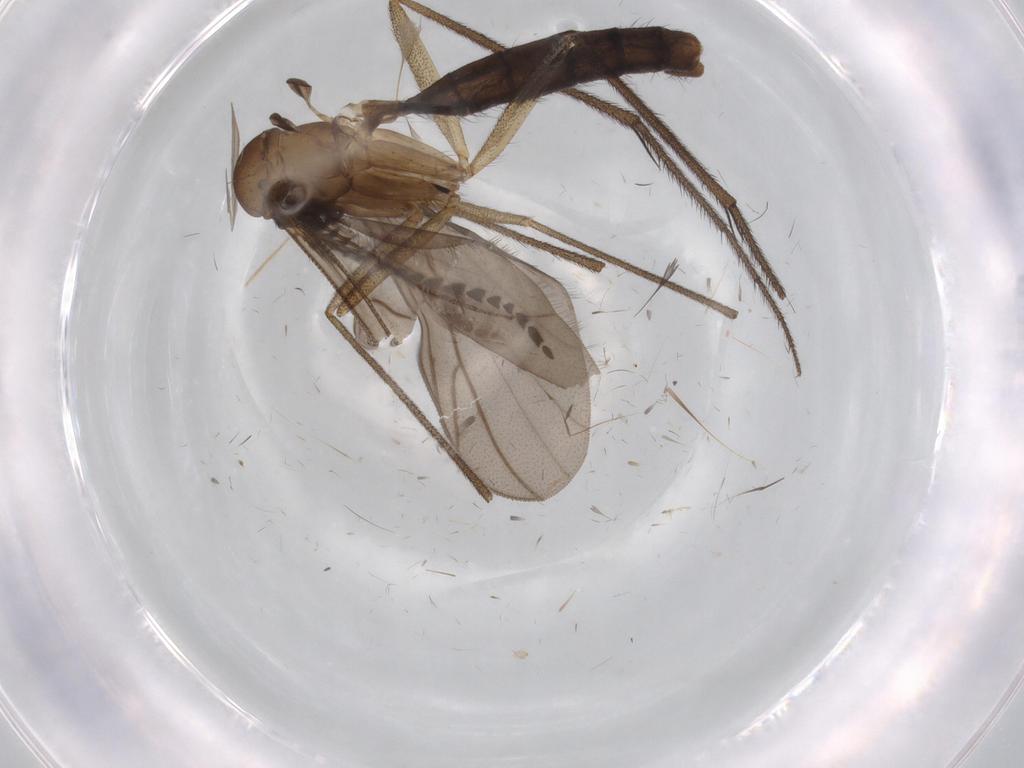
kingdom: Animalia
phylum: Arthropoda
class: Insecta
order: Diptera
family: Ditomyiidae
